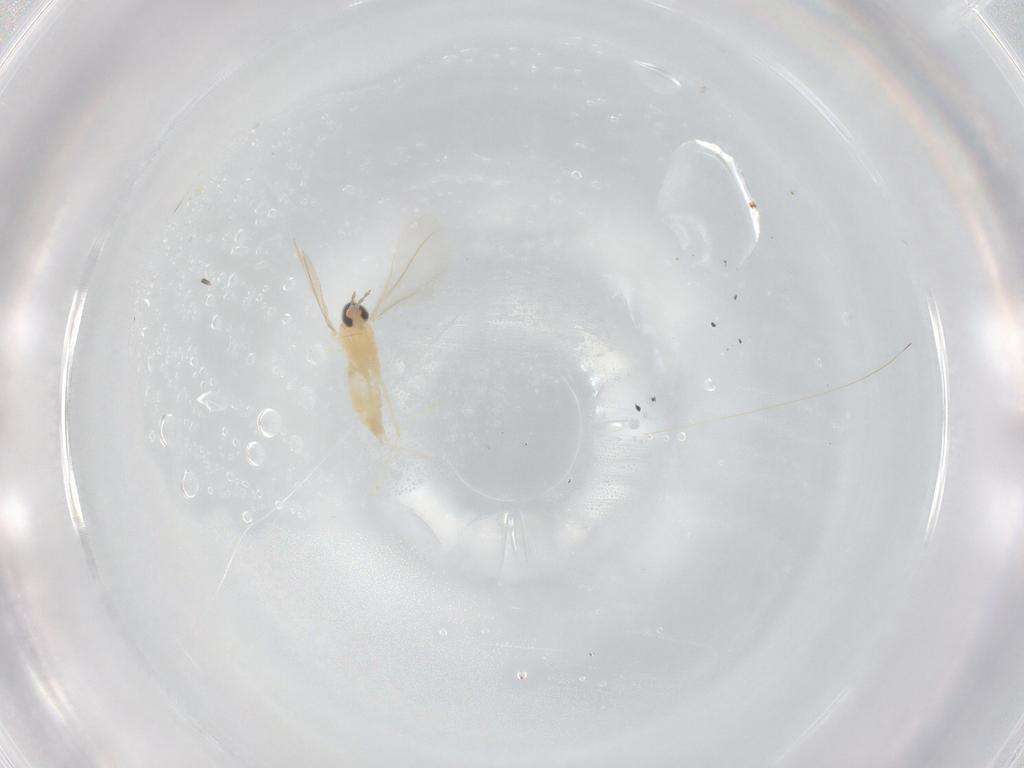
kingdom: Animalia
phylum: Arthropoda
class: Insecta
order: Diptera
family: Cecidomyiidae
